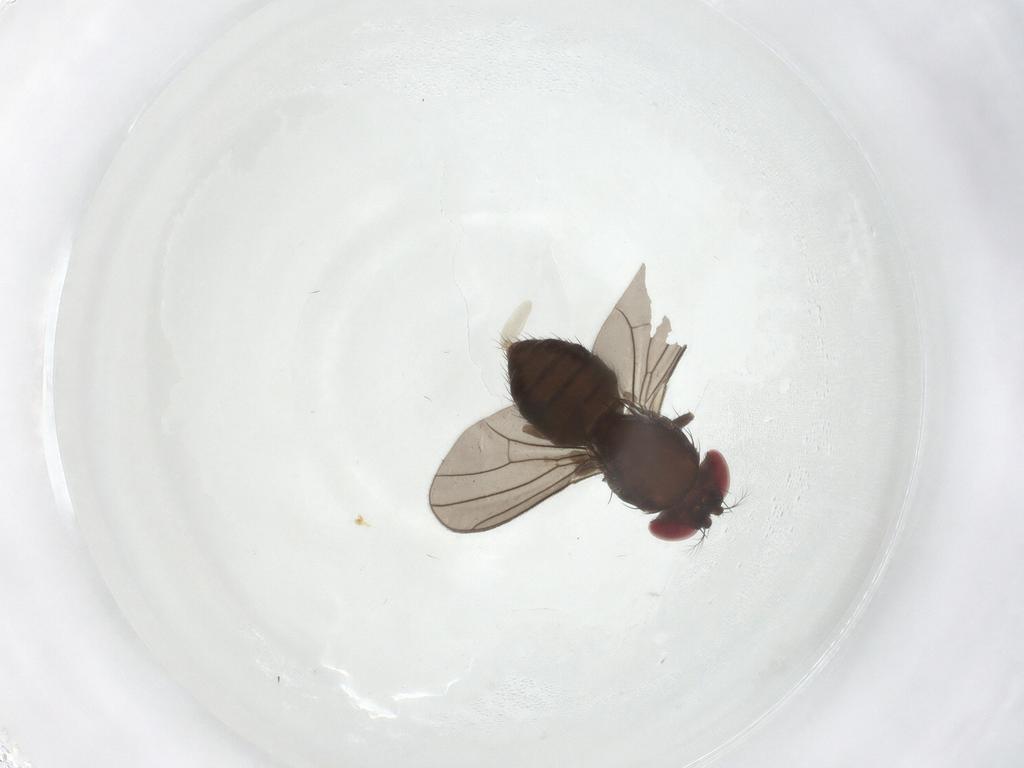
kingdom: Animalia
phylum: Arthropoda
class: Insecta
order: Diptera
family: Drosophilidae
